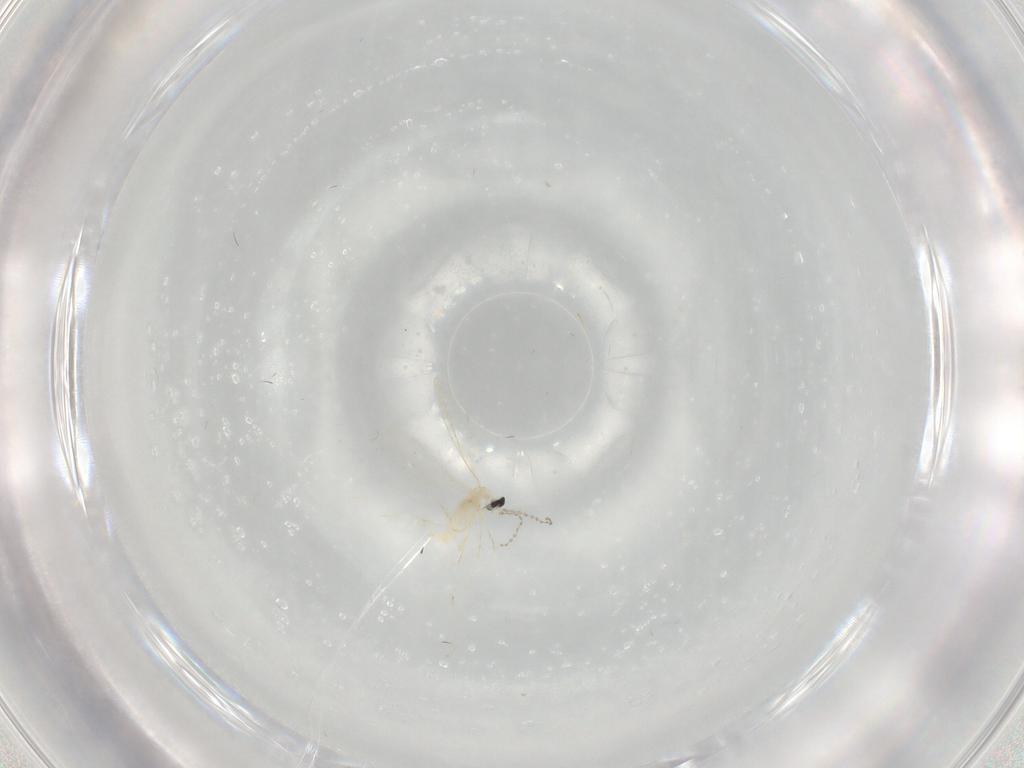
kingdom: Animalia
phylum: Arthropoda
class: Insecta
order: Diptera
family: Cecidomyiidae
